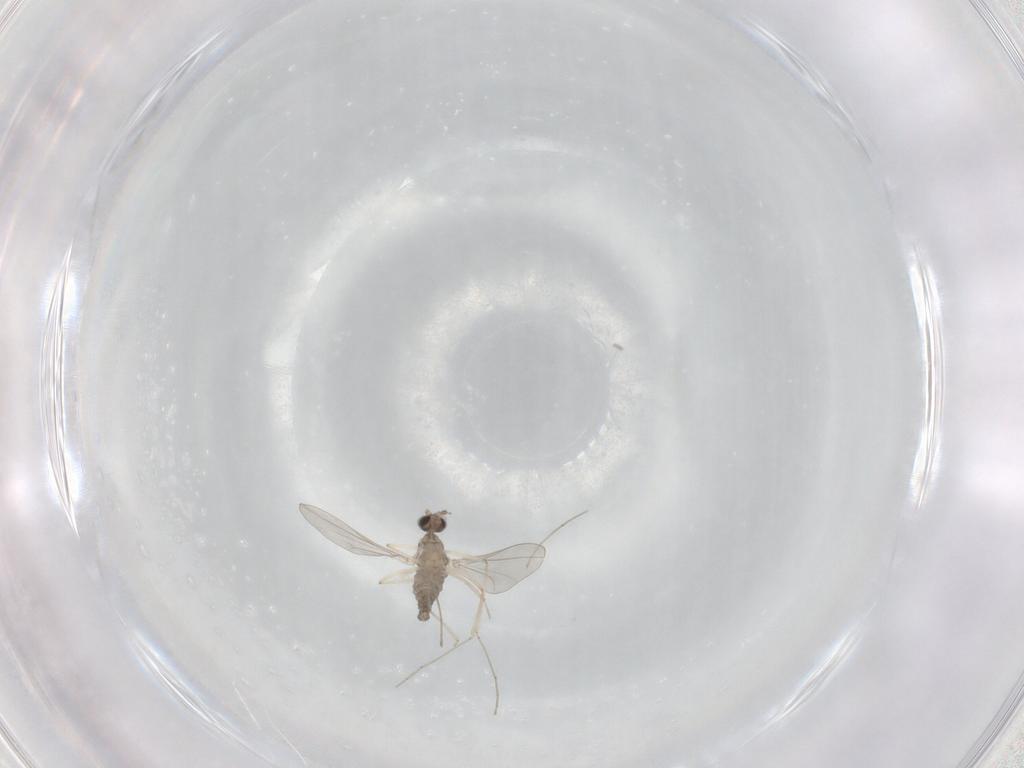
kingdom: Animalia
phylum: Arthropoda
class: Insecta
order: Diptera
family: Cecidomyiidae
